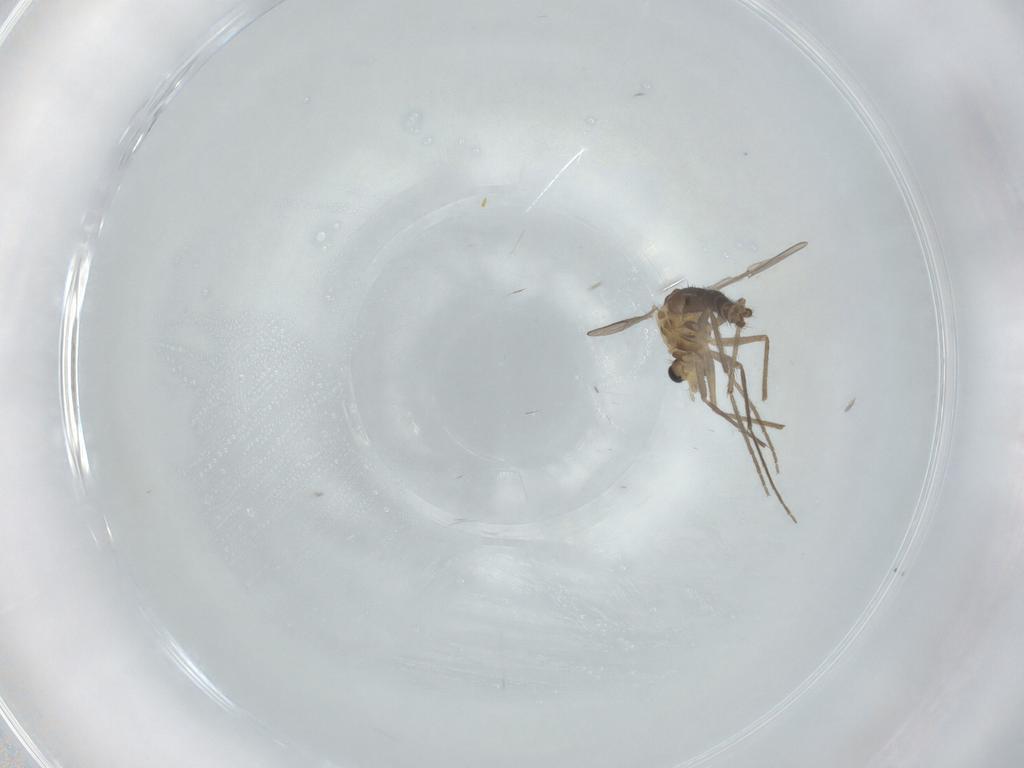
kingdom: Animalia
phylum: Arthropoda
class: Insecta
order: Diptera
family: Chironomidae
